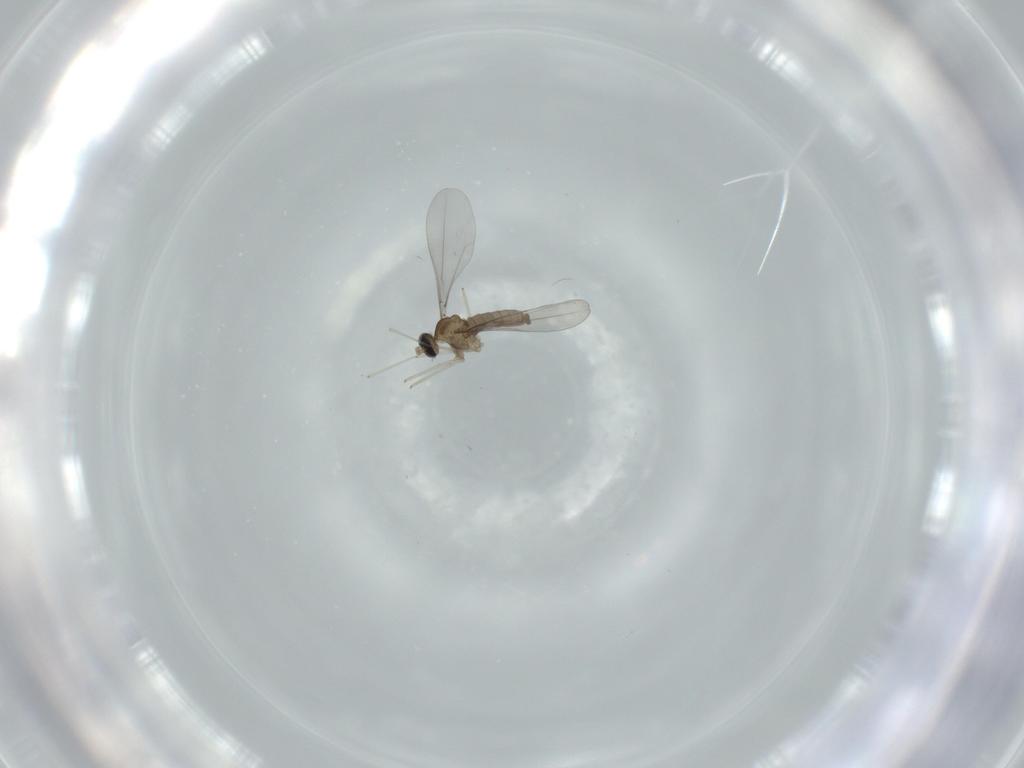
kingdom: Animalia
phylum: Arthropoda
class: Insecta
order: Diptera
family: Cecidomyiidae
